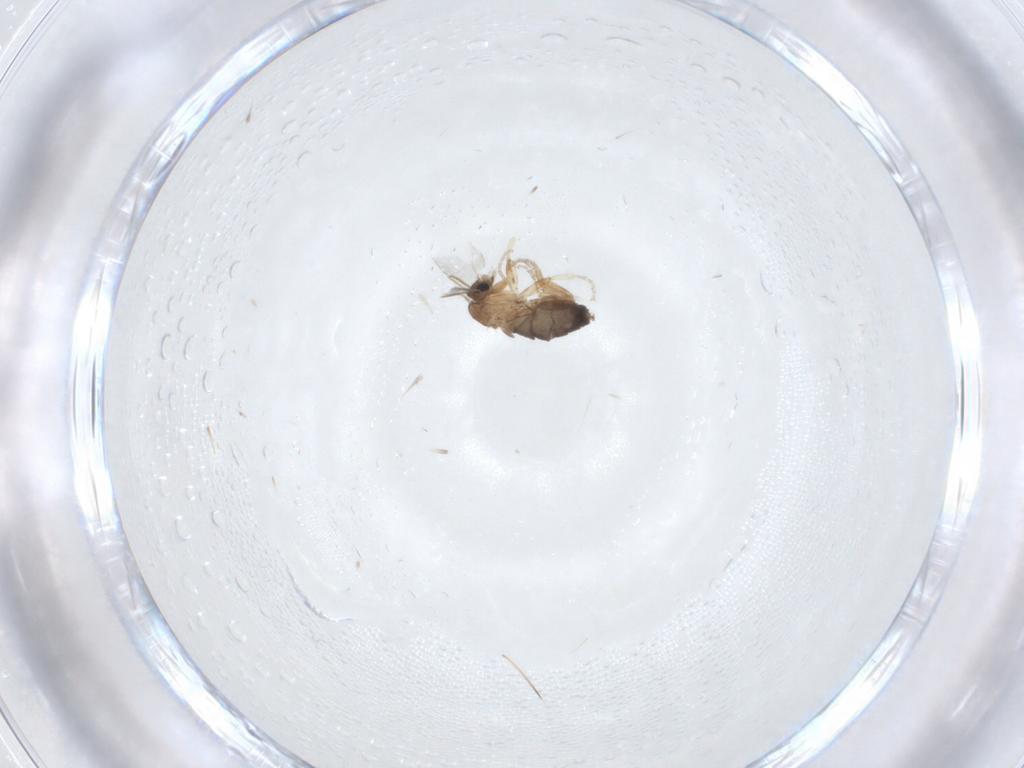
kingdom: Animalia
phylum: Arthropoda
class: Insecta
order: Diptera
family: Phoridae
